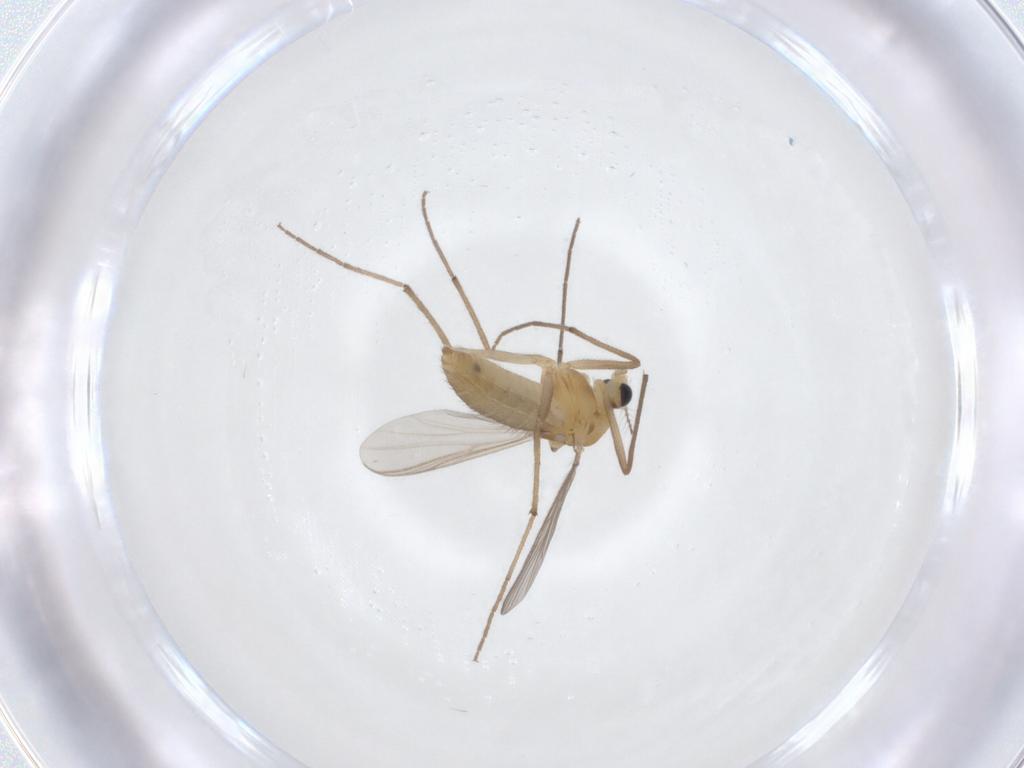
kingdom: Animalia
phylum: Arthropoda
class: Insecta
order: Diptera
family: Chironomidae
